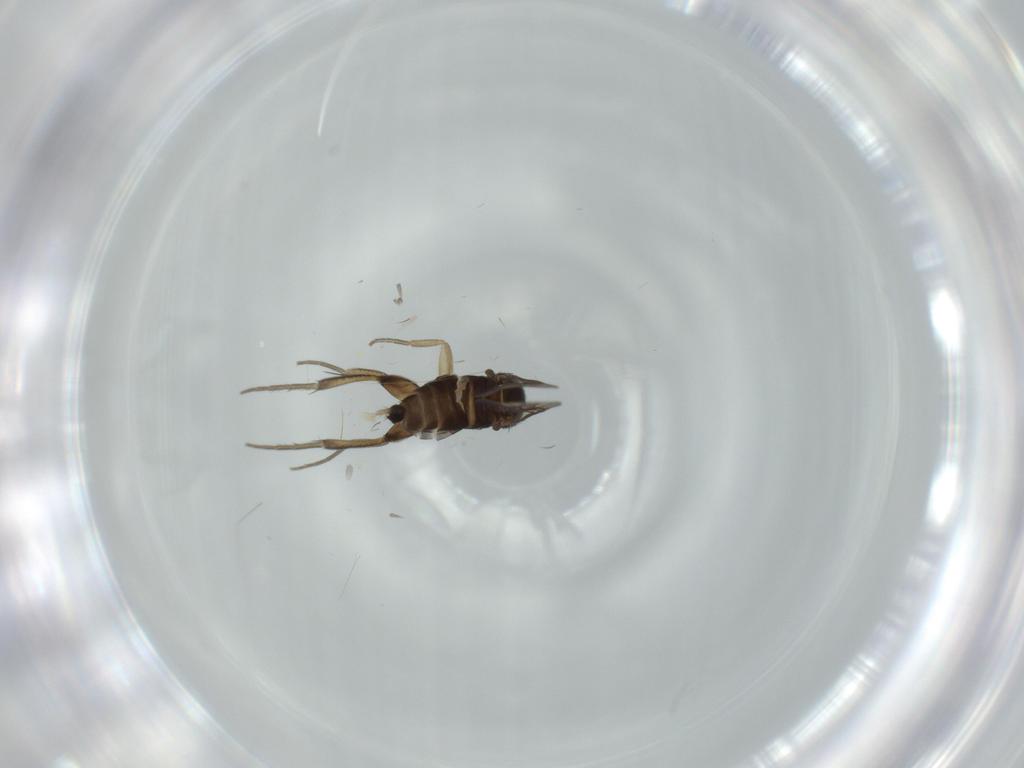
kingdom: Animalia
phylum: Arthropoda
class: Insecta
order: Diptera
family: Phoridae
